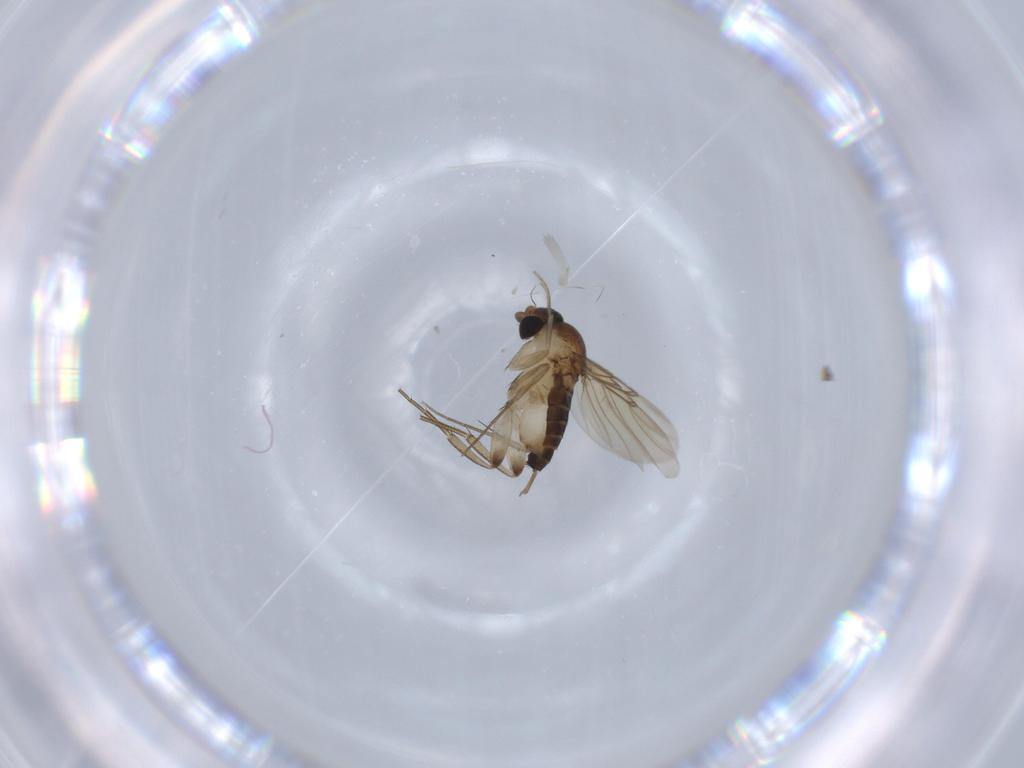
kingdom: Animalia
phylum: Arthropoda
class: Insecta
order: Diptera
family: Phoridae
